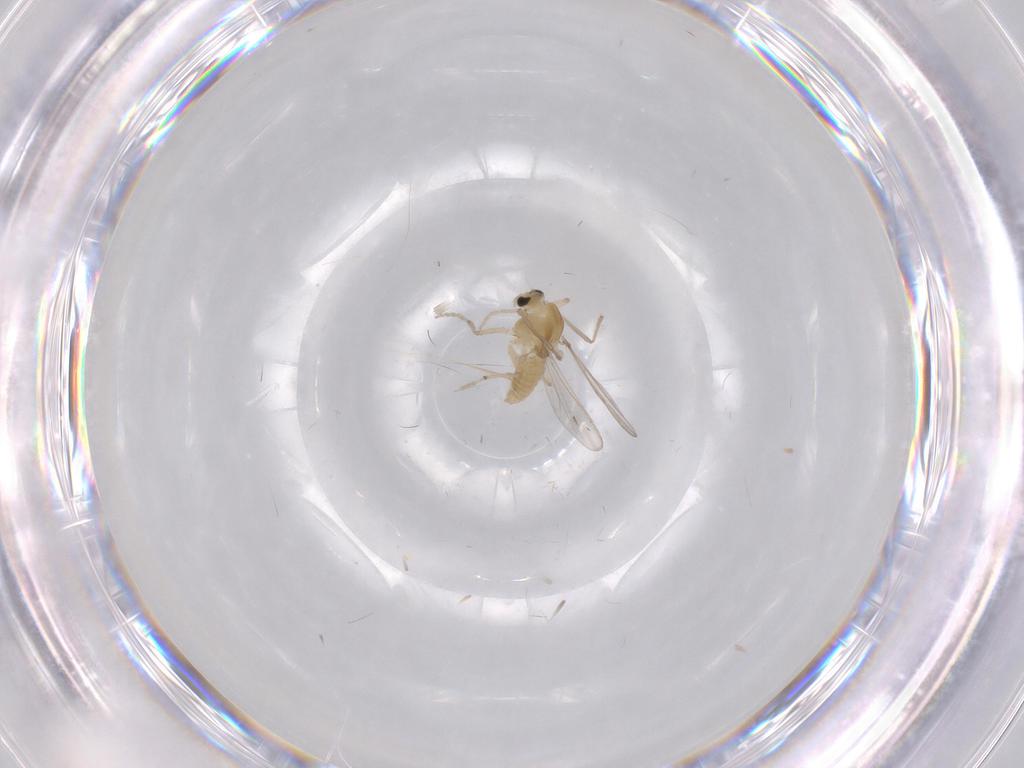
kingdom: Animalia
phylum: Arthropoda
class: Insecta
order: Diptera
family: Chironomidae
